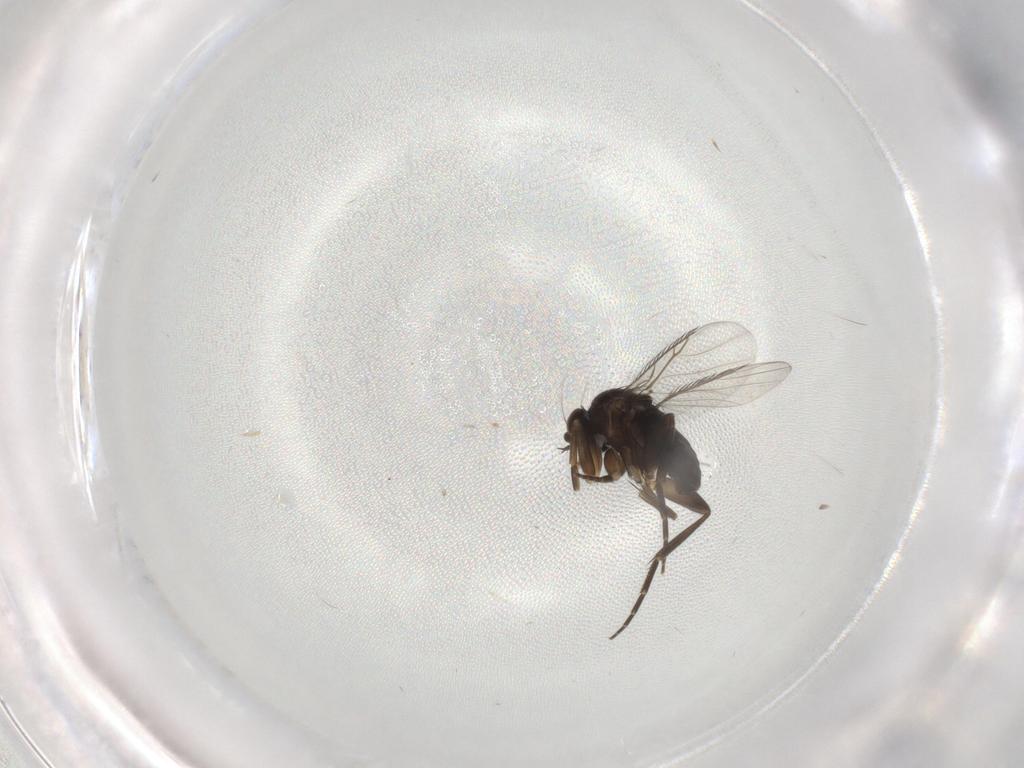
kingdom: Animalia
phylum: Arthropoda
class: Insecta
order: Diptera
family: Phoridae
